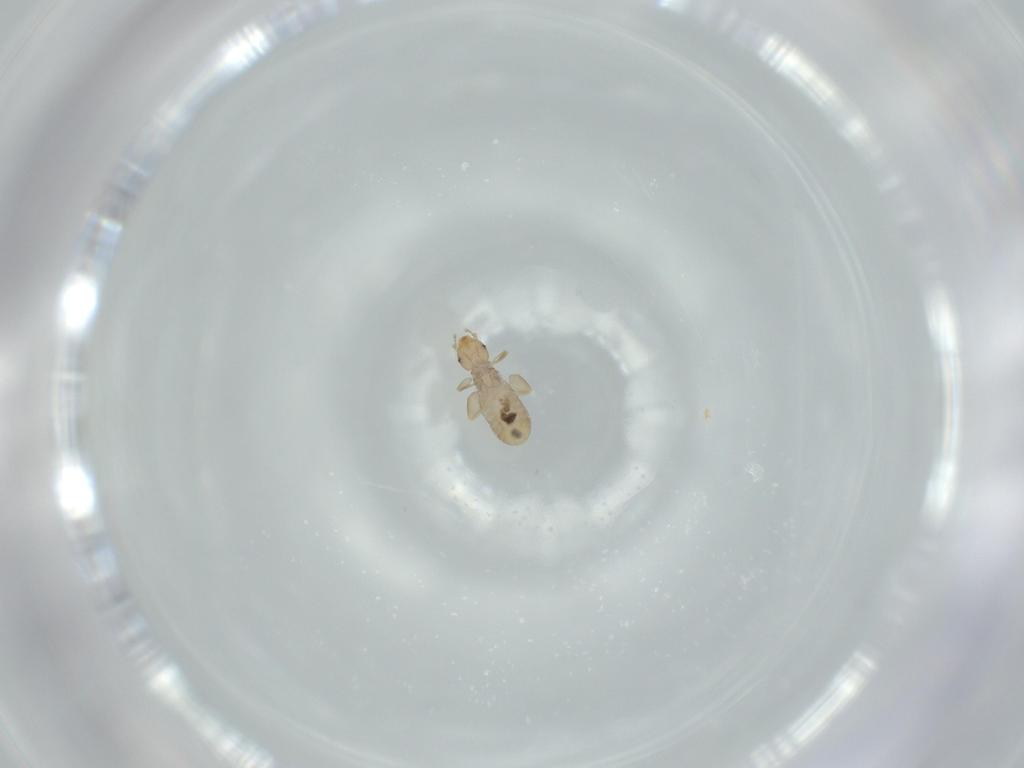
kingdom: Animalia
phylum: Arthropoda
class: Insecta
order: Psocodea
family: Liposcelididae
